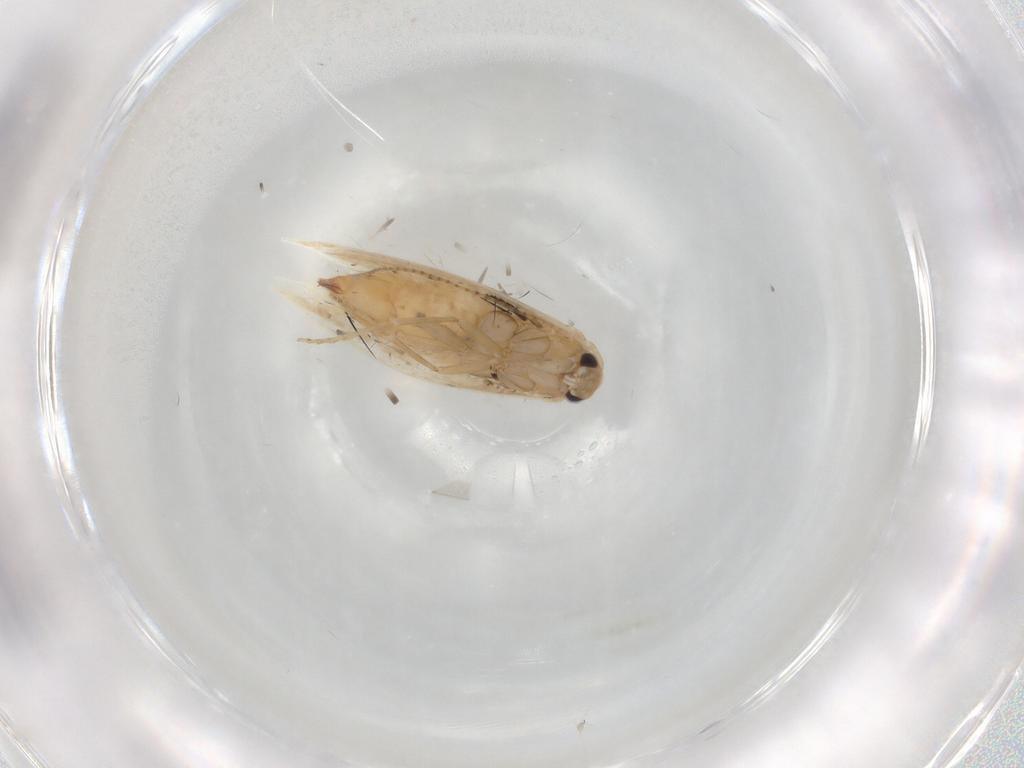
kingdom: Animalia
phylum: Arthropoda
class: Insecta
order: Lepidoptera
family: Bucculatricidae
